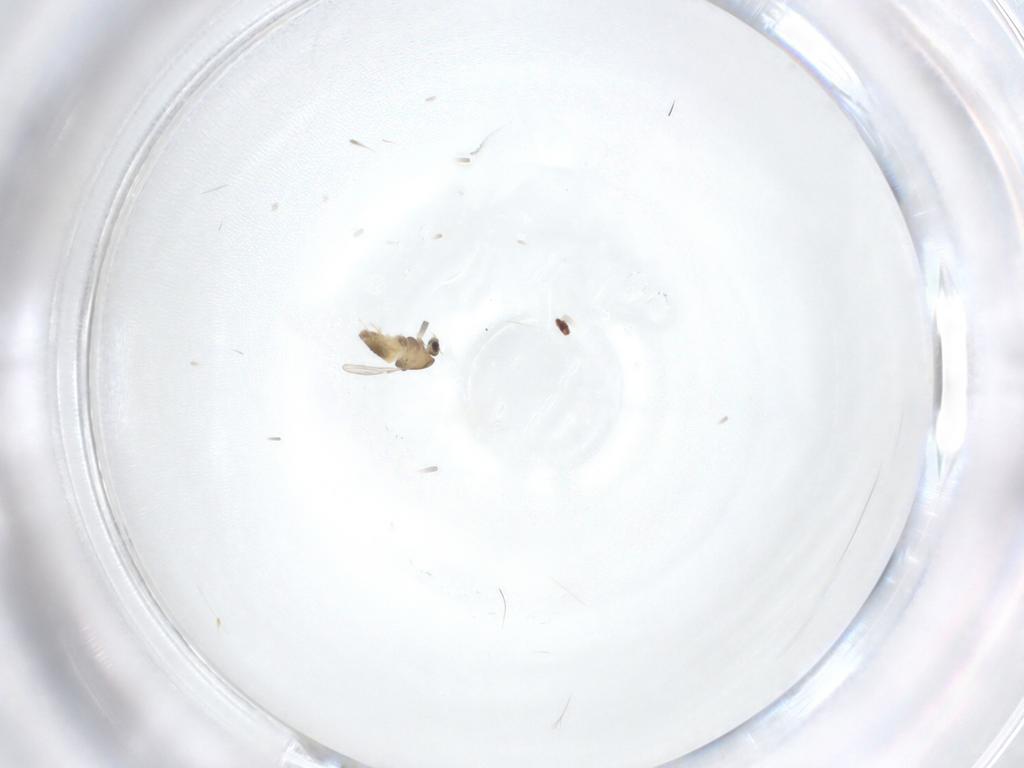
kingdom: Animalia
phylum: Arthropoda
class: Insecta
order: Diptera
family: Chironomidae
